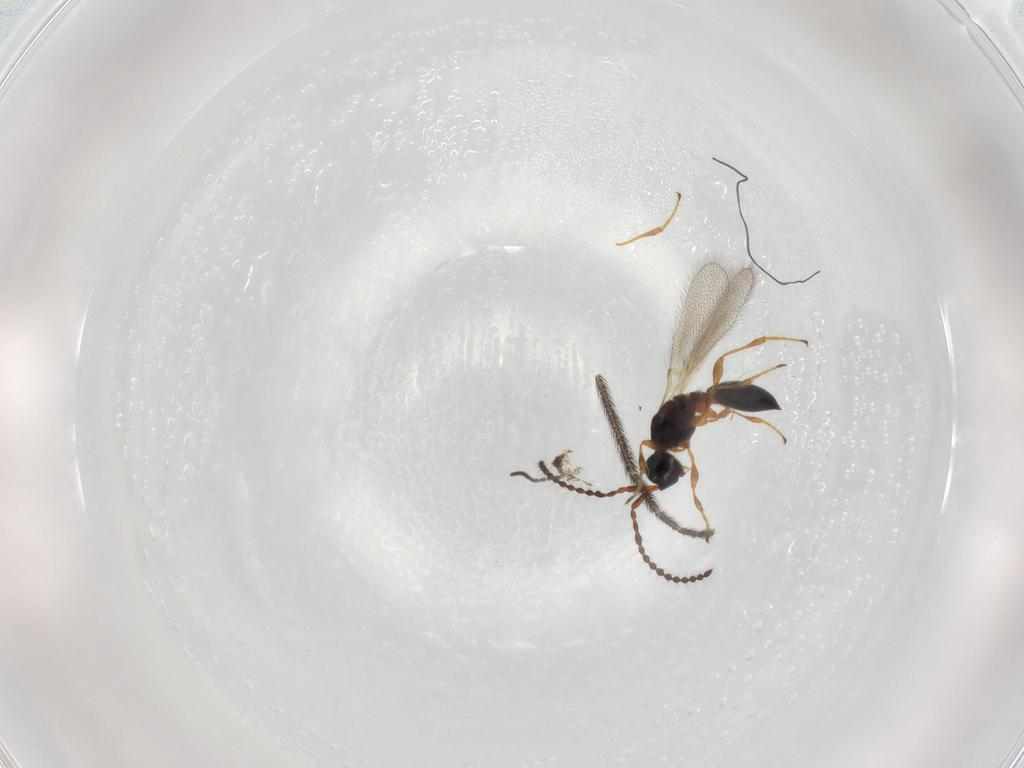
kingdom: Animalia
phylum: Arthropoda
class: Insecta
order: Hymenoptera
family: Diapriidae
